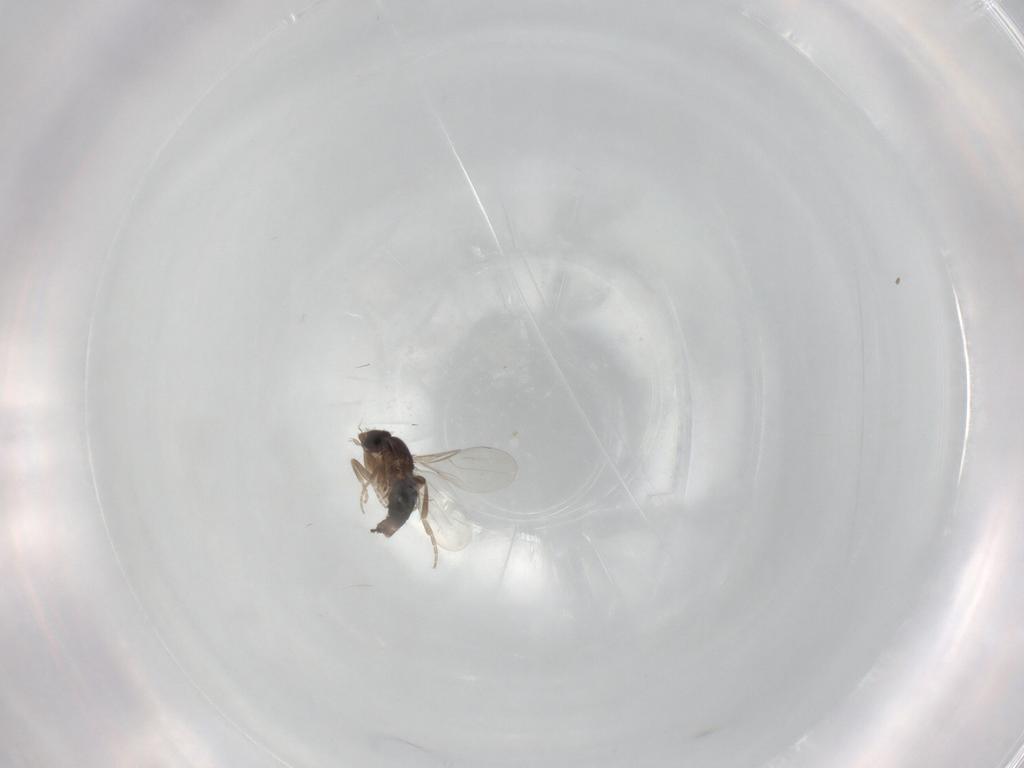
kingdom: Animalia
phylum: Arthropoda
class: Insecta
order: Diptera
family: Phoridae
